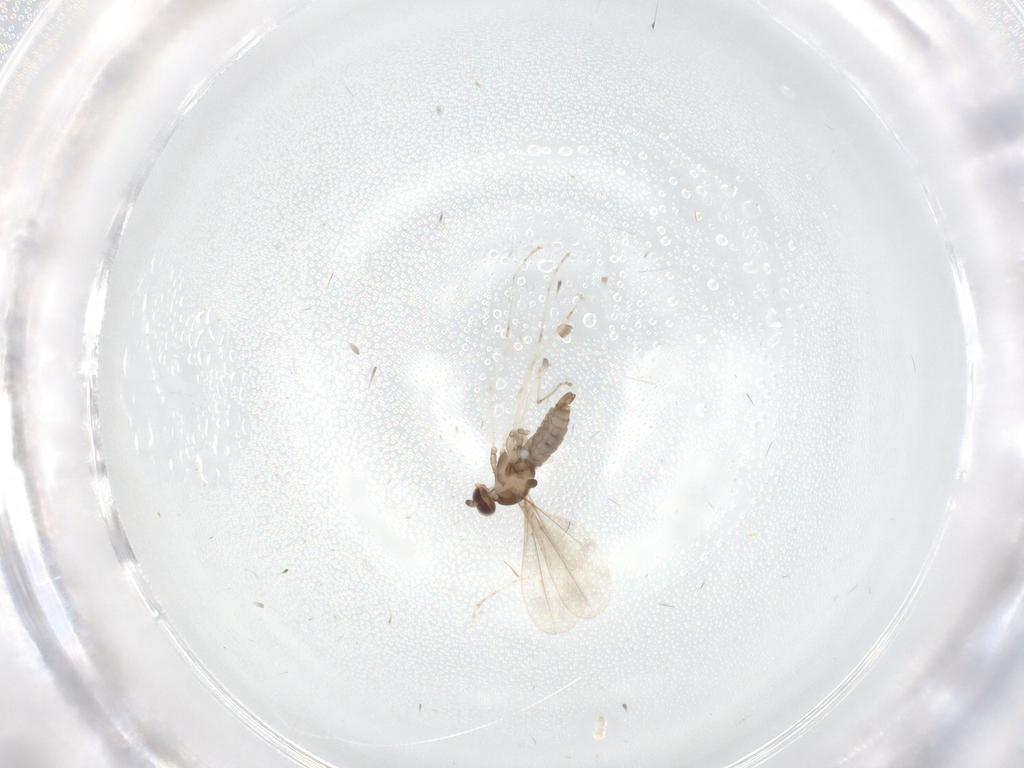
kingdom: Animalia
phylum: Arthropoda
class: Insecta
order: Diptera
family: Cecidomyiidae
